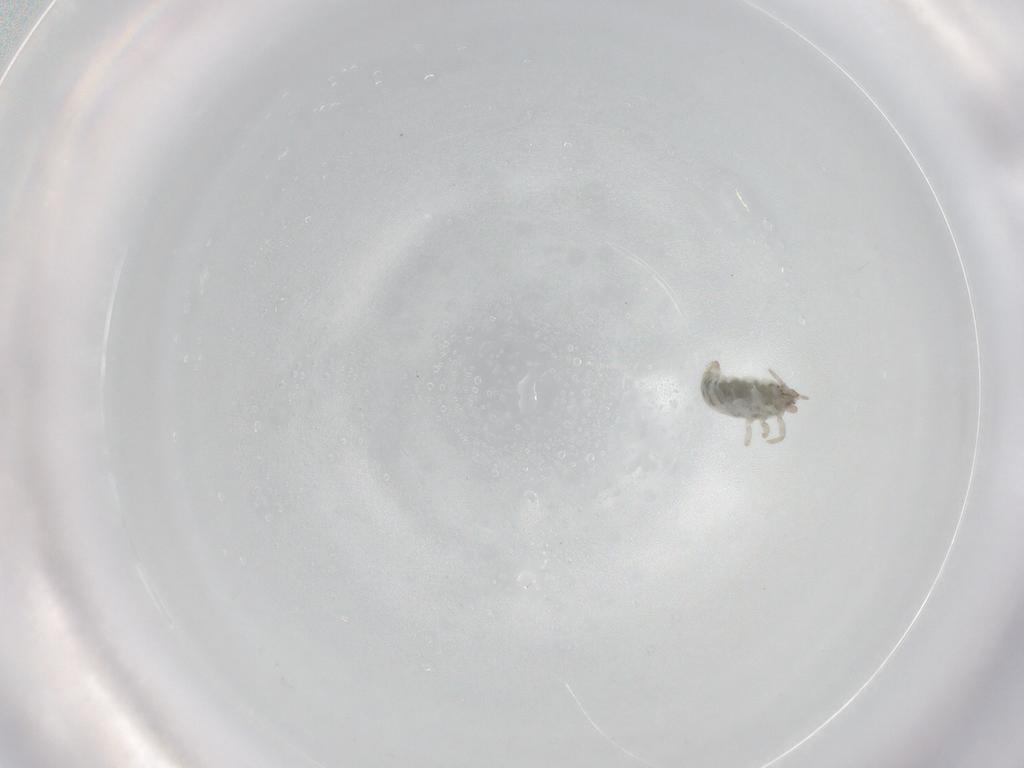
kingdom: Animalia
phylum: Arthropoda
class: Insecta
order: Neuroptera
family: Coniopterygidae
